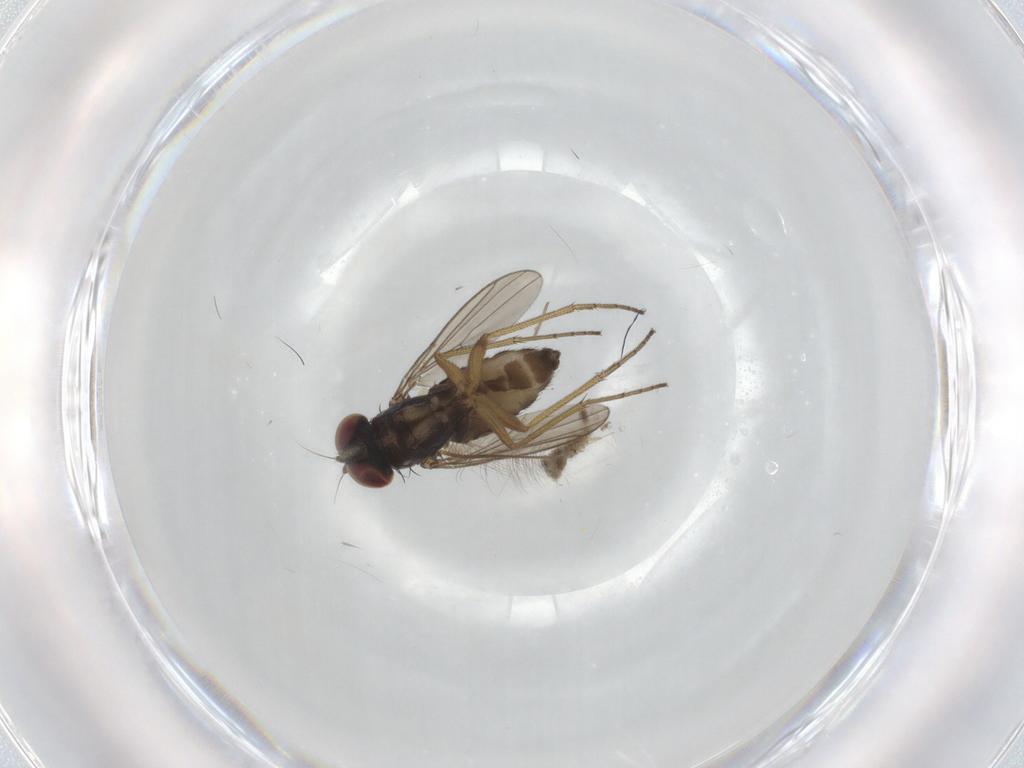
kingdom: Animalia
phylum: Arthropoda
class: Insecta
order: Diptera
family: Dolichopodidae
